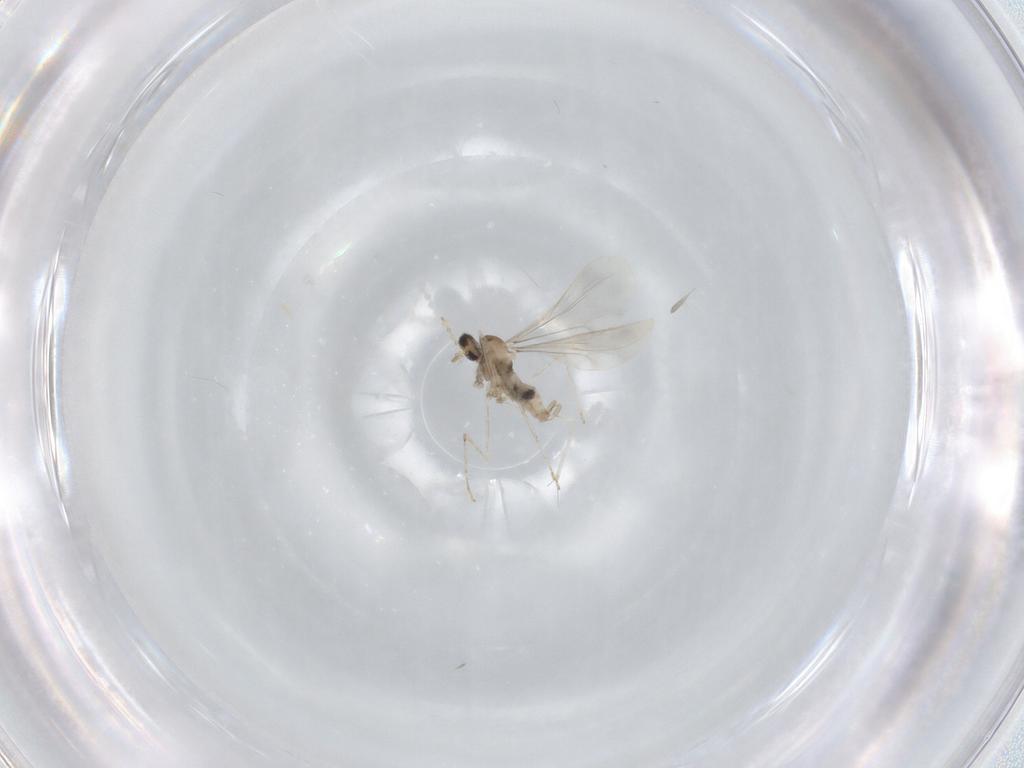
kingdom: Animalia
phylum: Arthropoda
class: Insecta
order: Diptera
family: Cecidomyiidae
